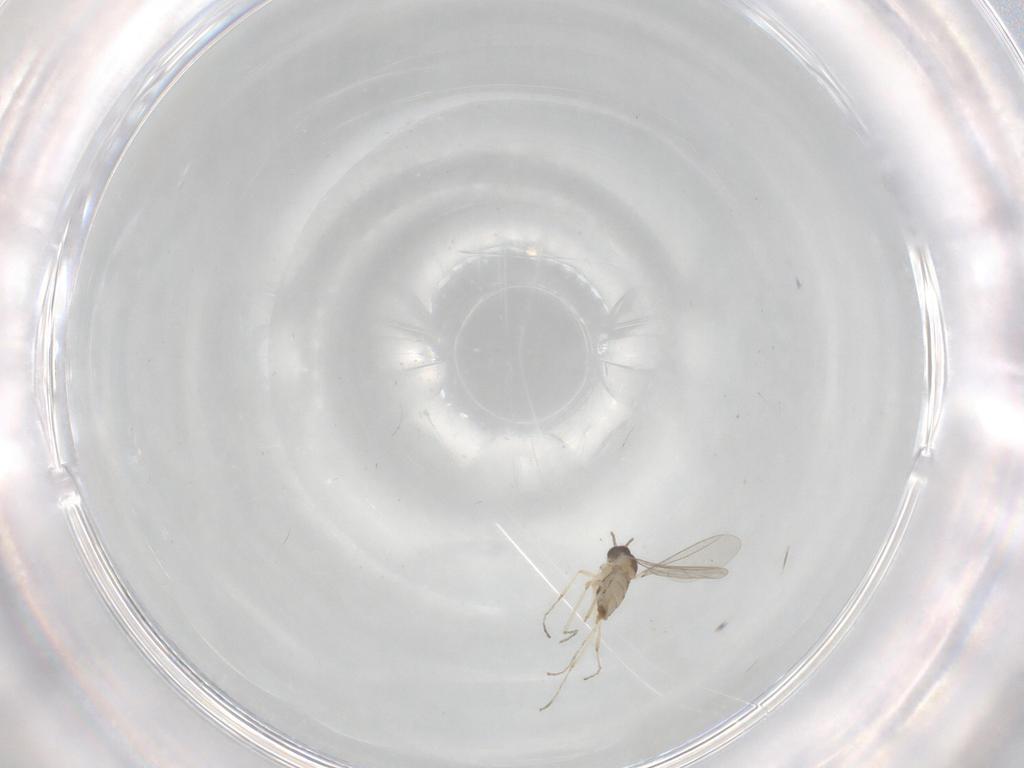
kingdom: Animalia
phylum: Arthropoda
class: Insecta
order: Diptera
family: Cecidomyiidae
